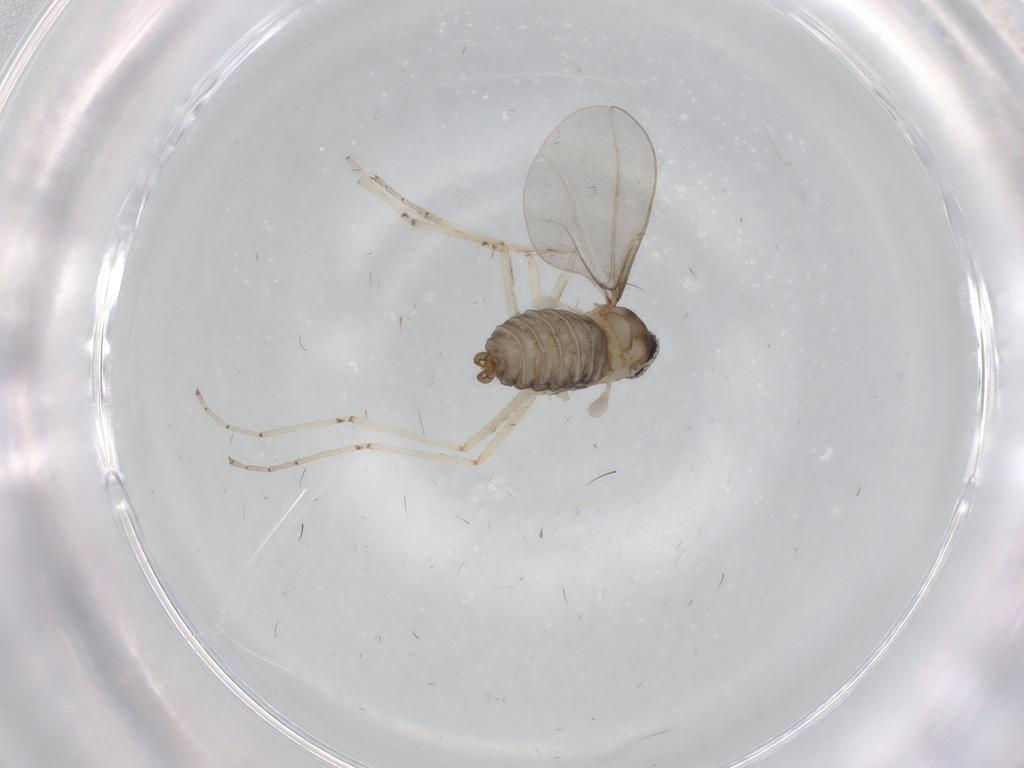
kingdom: Animalia
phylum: Arthropoda
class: Insecta
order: Diptera
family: Cecidomyiidae
